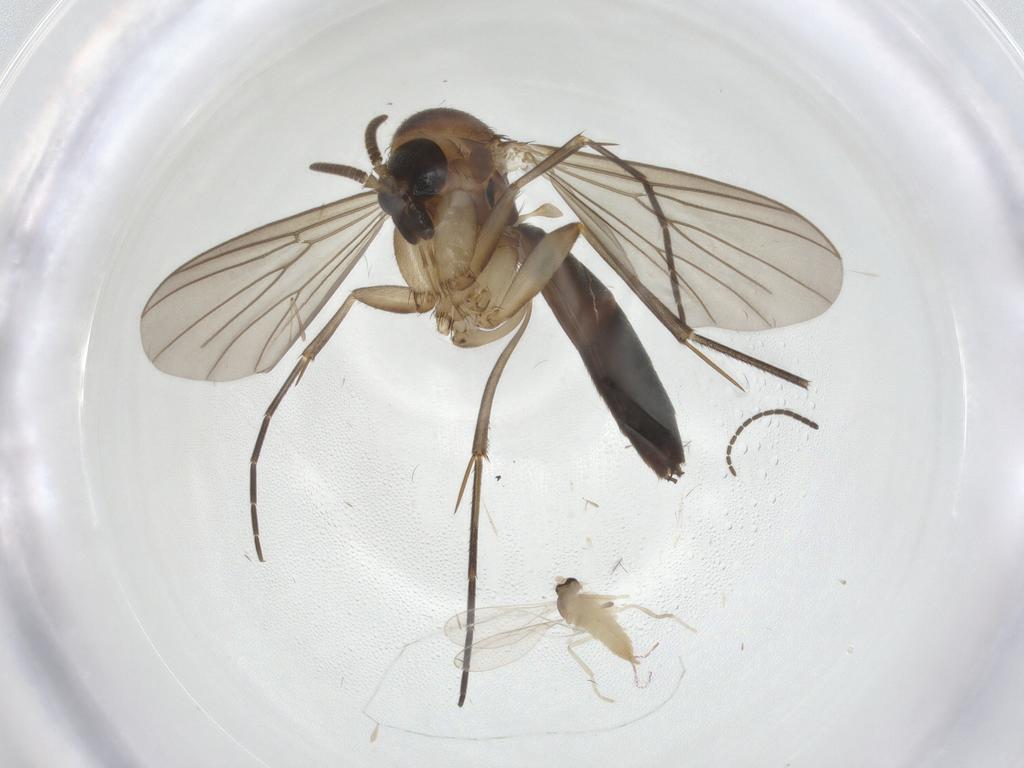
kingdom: Animalia
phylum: Arthropoda
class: Insecta
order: Diptera
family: Mycetophilidae
